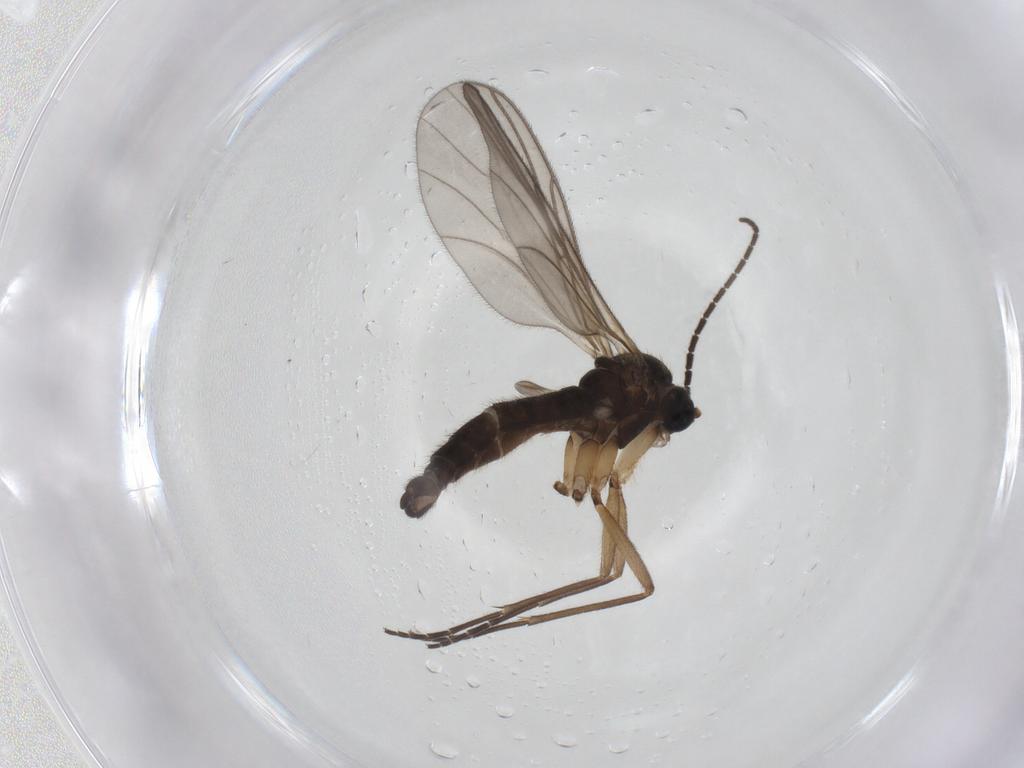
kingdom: Animalia
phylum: Arthropoda
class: Insecta
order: Diptera
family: Sciaridae
